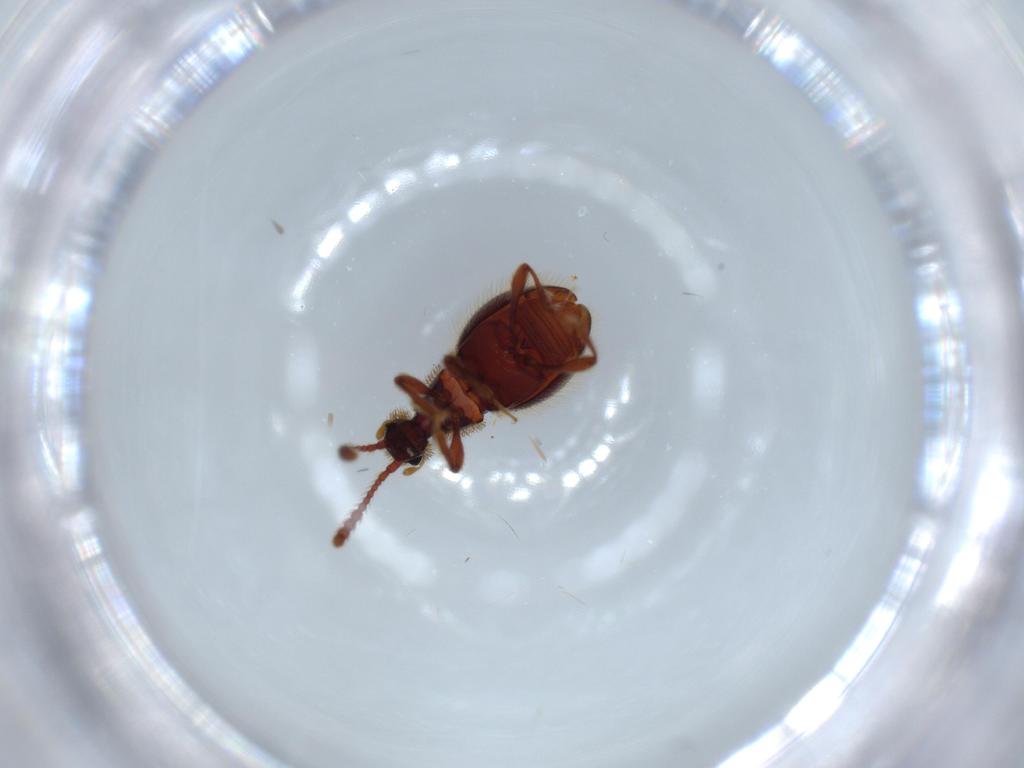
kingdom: Animalia
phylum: Arthropoda
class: Insecta
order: Coleoptera
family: Staphylinidae
